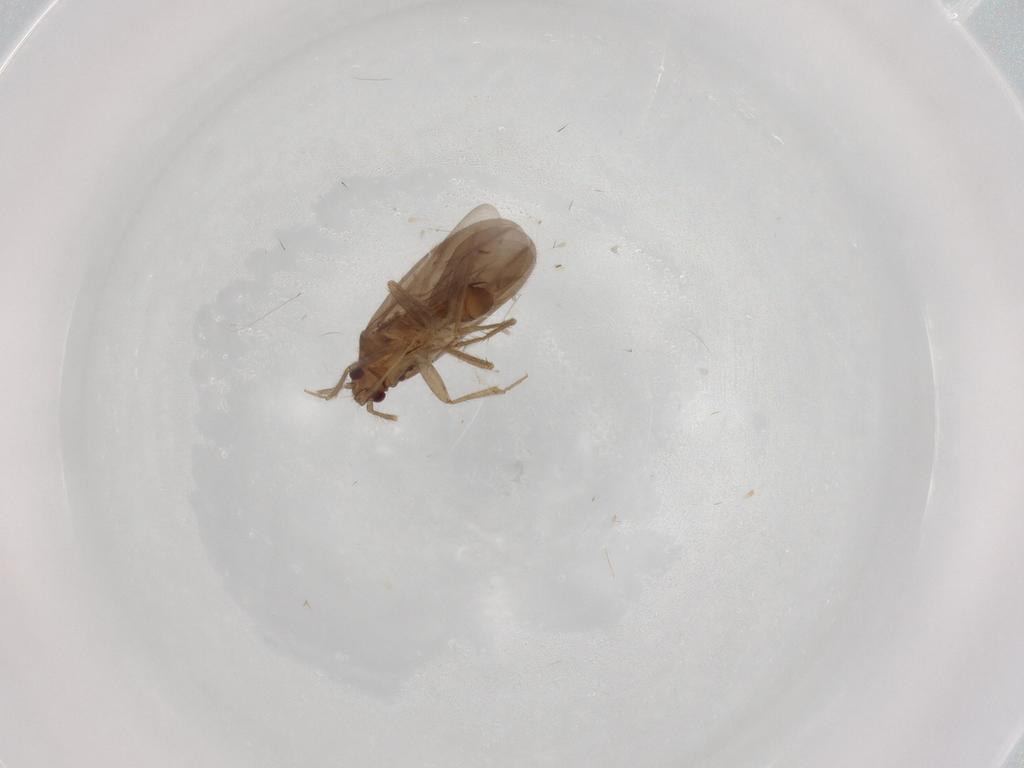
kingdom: Animalia
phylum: Arthropoda
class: Insecta
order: Hemiptera
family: Ceratocombidae
